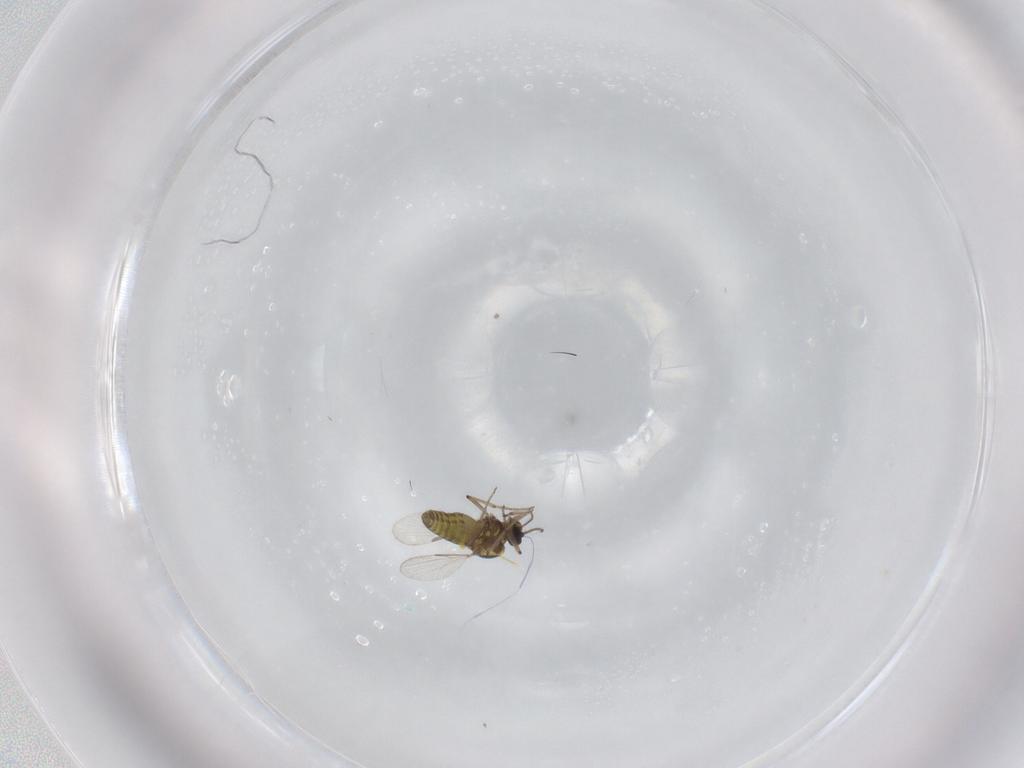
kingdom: Animalia
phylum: Arthropoda
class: Insecta
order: Diptera
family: Ceratopogonidae
